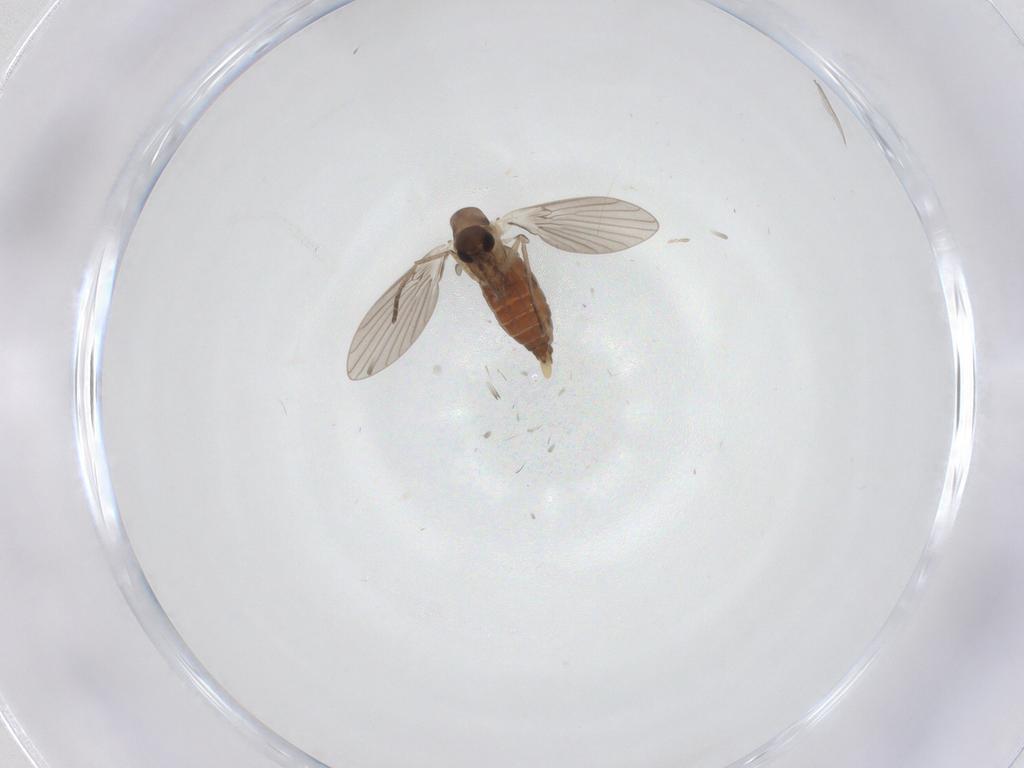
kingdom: Animalia
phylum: Arthropoda
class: Insecta
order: Diptera
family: Cecidomyiidae
